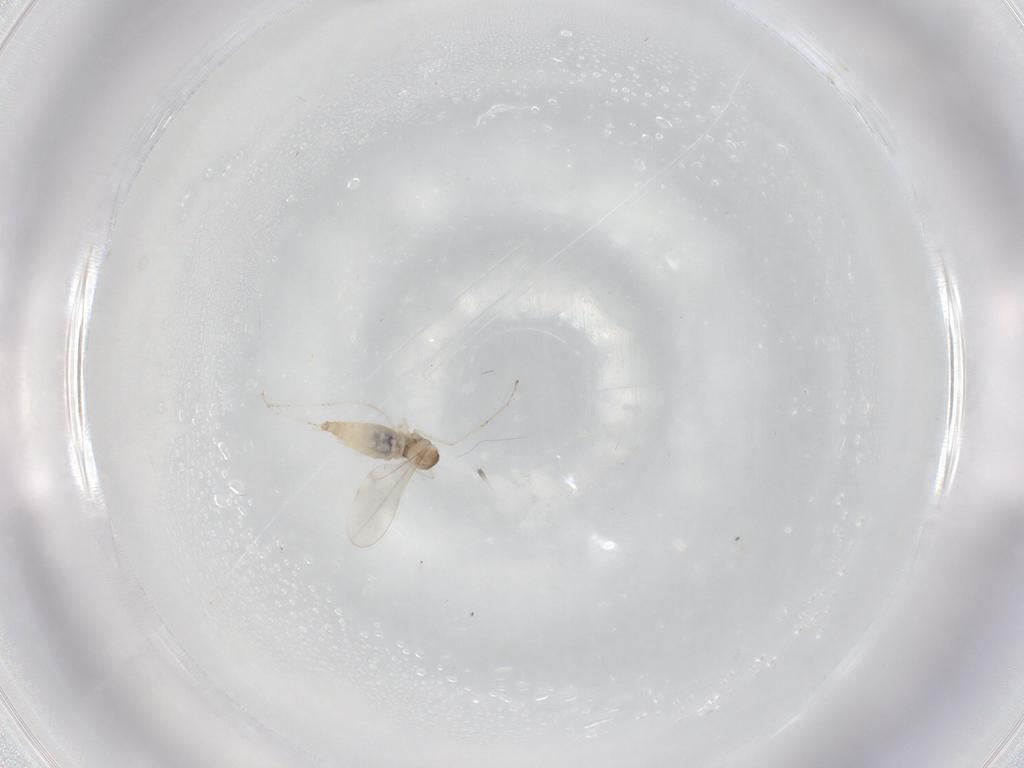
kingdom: Animalia
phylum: Arthropoda
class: Insecta
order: Diptera
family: Cecidomyiidae
